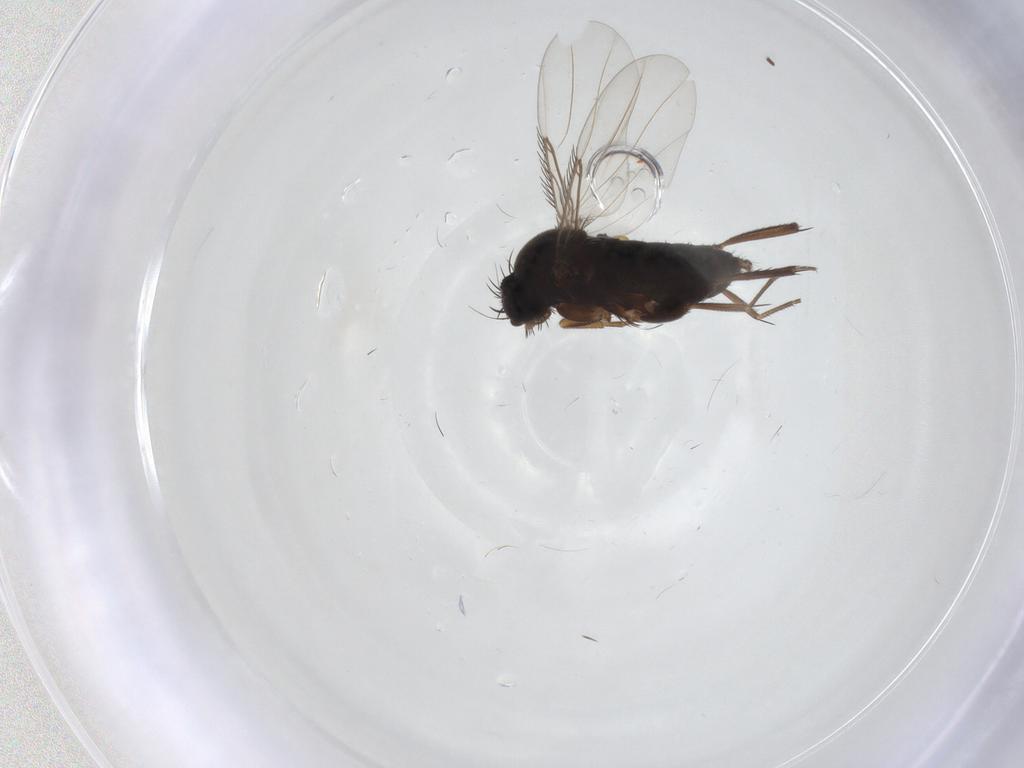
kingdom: Animalia
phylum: Arthropoda
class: Insecta
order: Diptera
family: Phoridae
